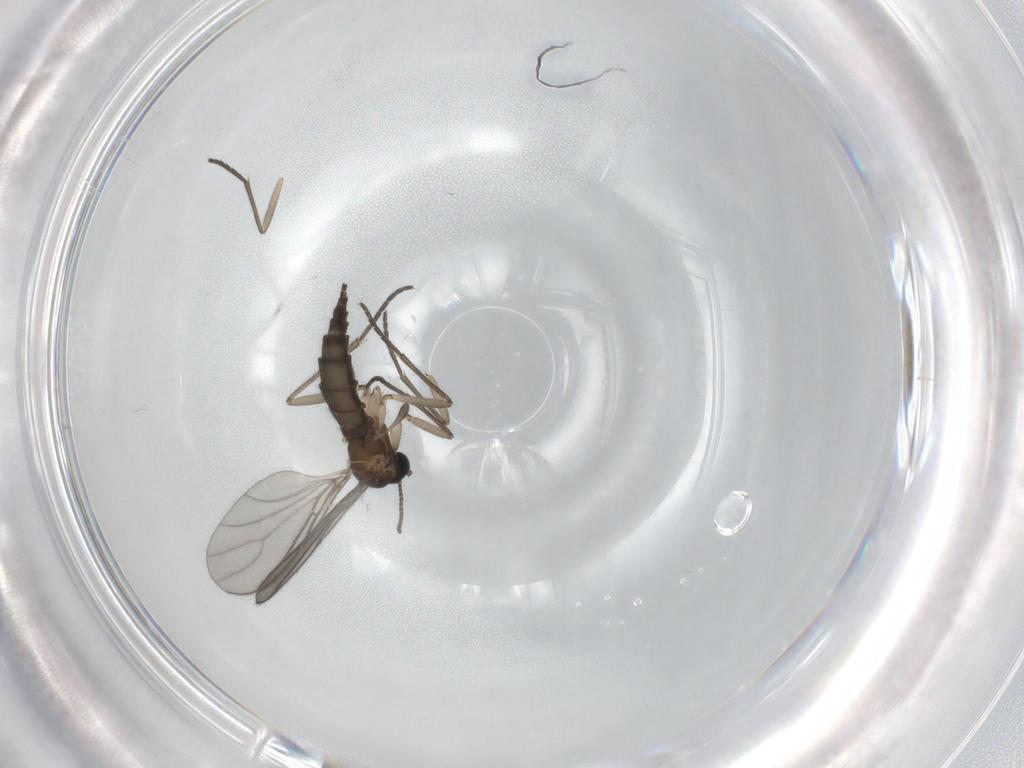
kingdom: Animalia
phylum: Arthropoda
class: Insecta
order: Diptera
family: Sciaridae
